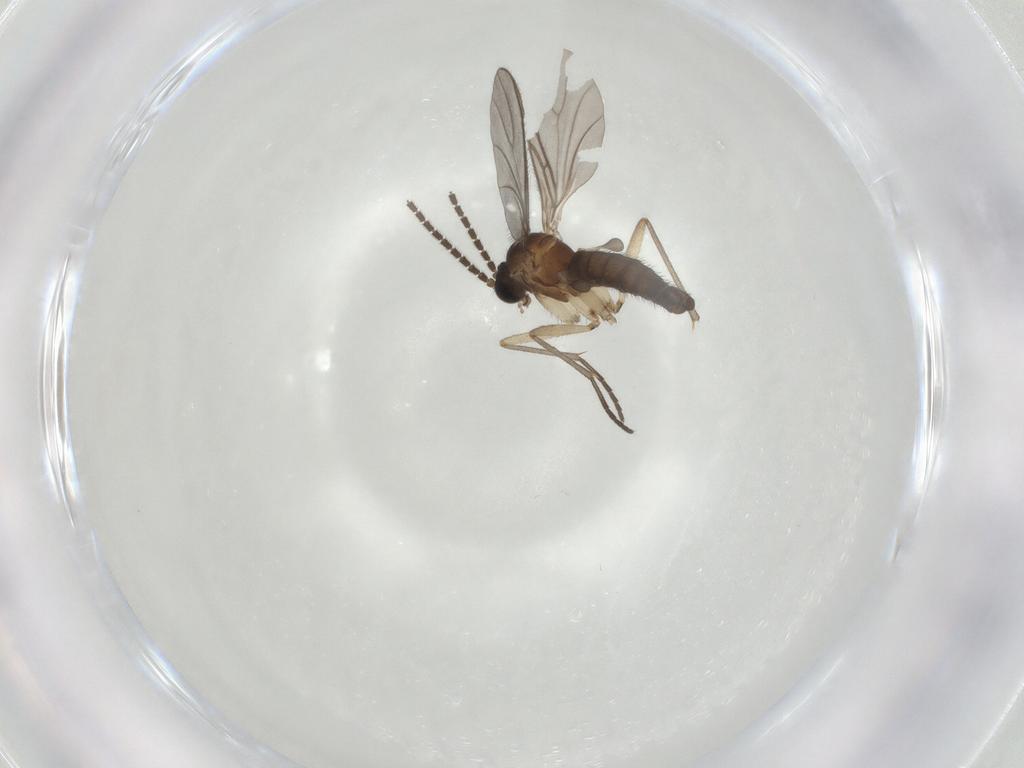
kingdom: Animalia
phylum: Arthropoda
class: Insecta
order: Diptera
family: Sciaridae
